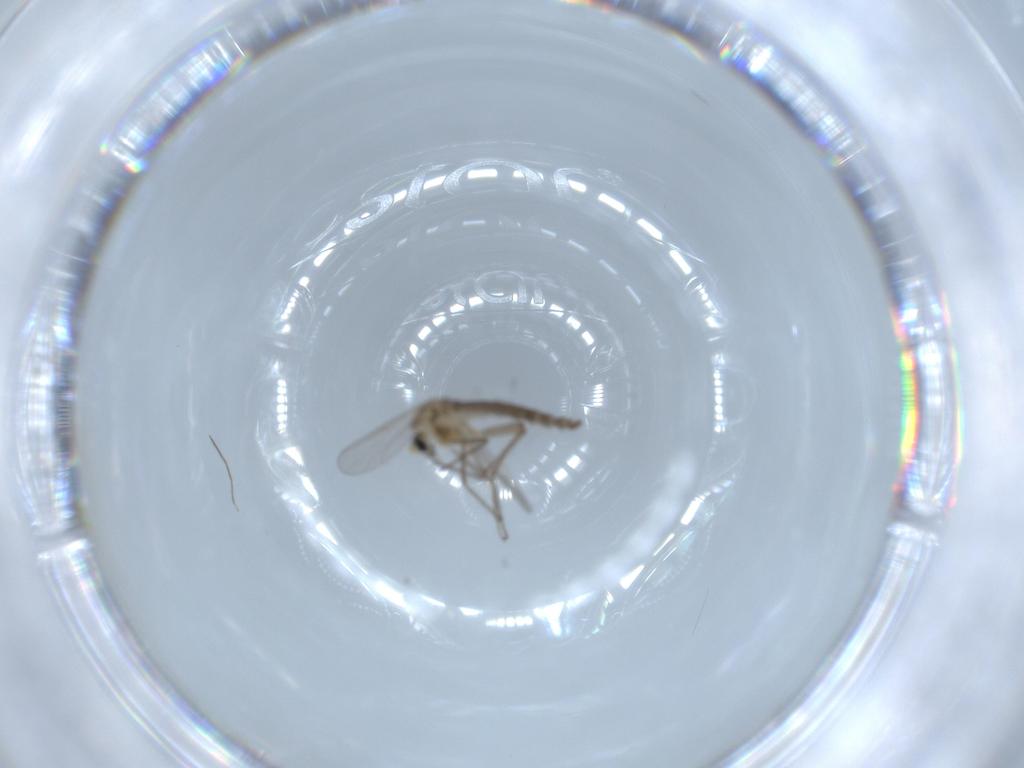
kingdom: Animalia
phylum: Arthropoda
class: Insecta
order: Diptera
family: Chironomidae
